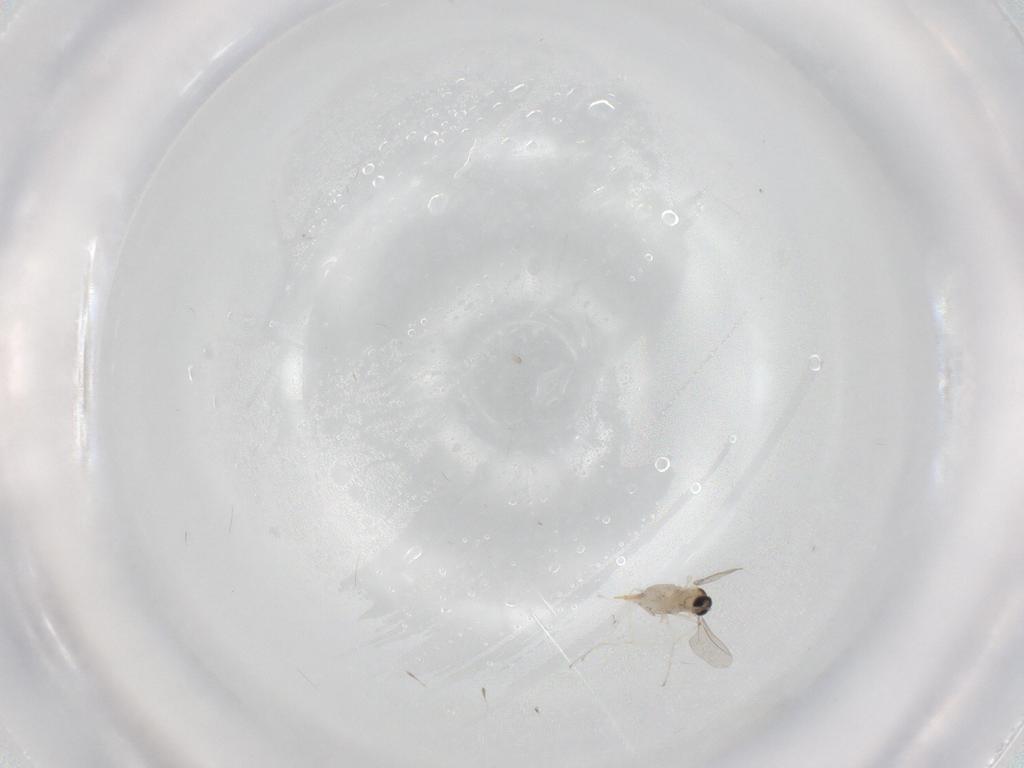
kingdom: Animalia
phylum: Arthropoda
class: Insecta
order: Diptera
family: Cecidomyiidae
